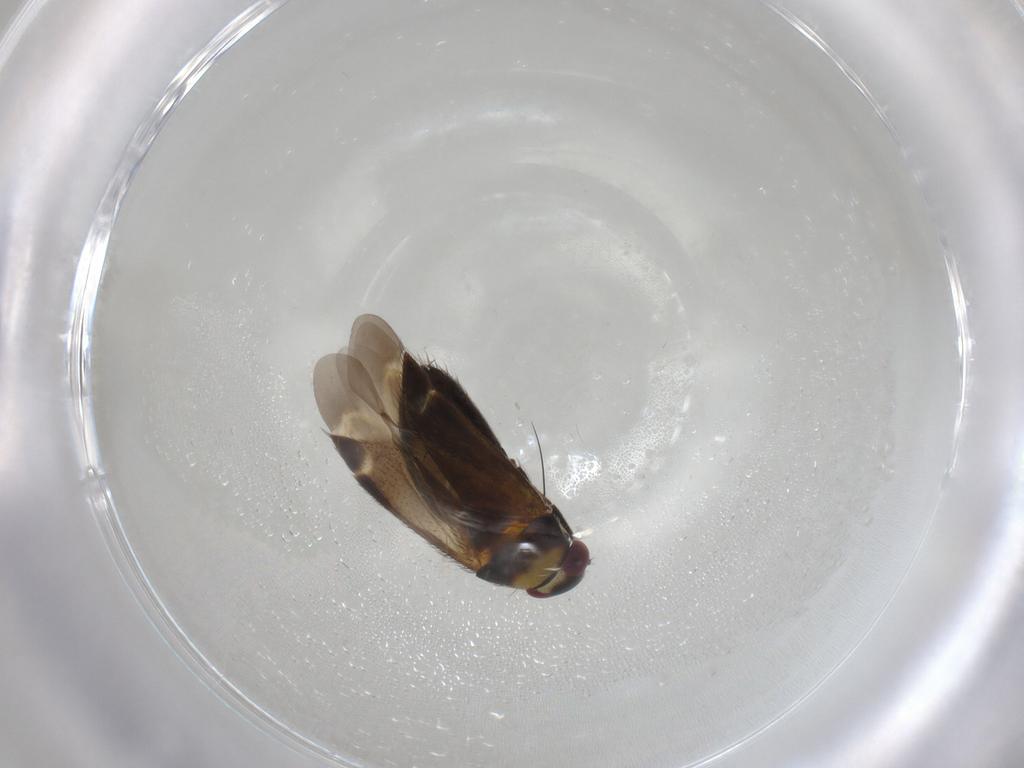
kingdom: Animalia
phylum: Arthropoda
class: Insecta
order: Hemiptera
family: Miridae
